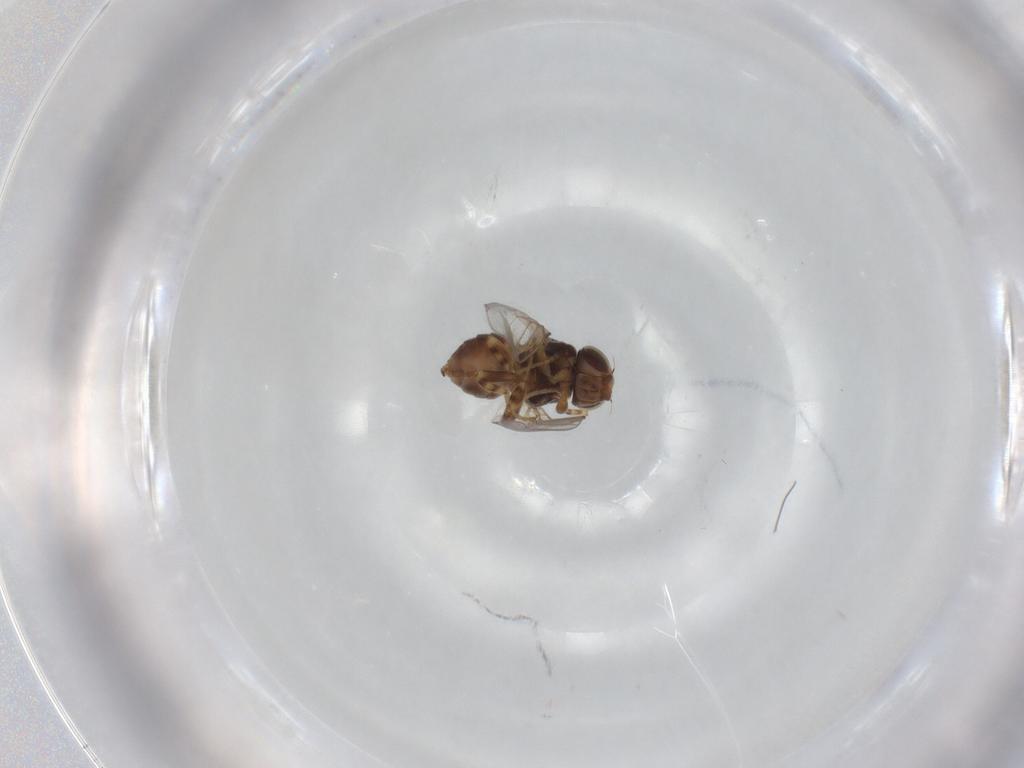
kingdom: Animalia
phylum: Arthropoda
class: Insecta
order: Diptera
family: Chloropidae
